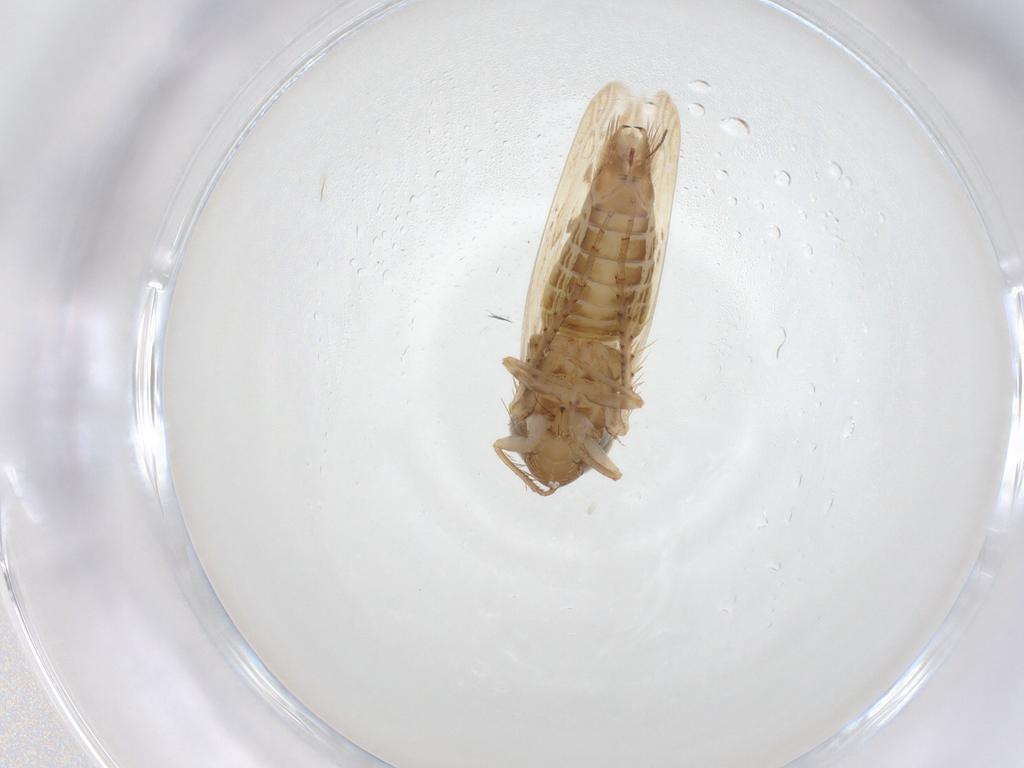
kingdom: Animalia
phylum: Arthropoda
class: Insecta
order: Hemiptera
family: Cicadellidae
